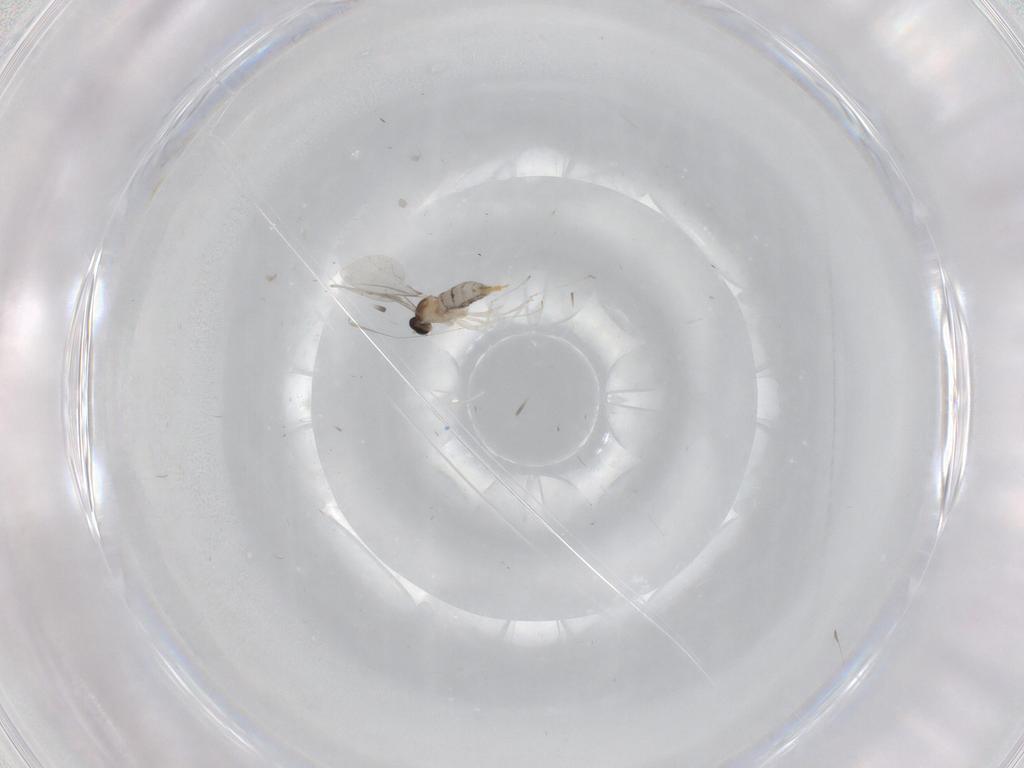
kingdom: Animalia
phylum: Arthropoda
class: Insecta
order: Diptera
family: Cecidomyiidae
